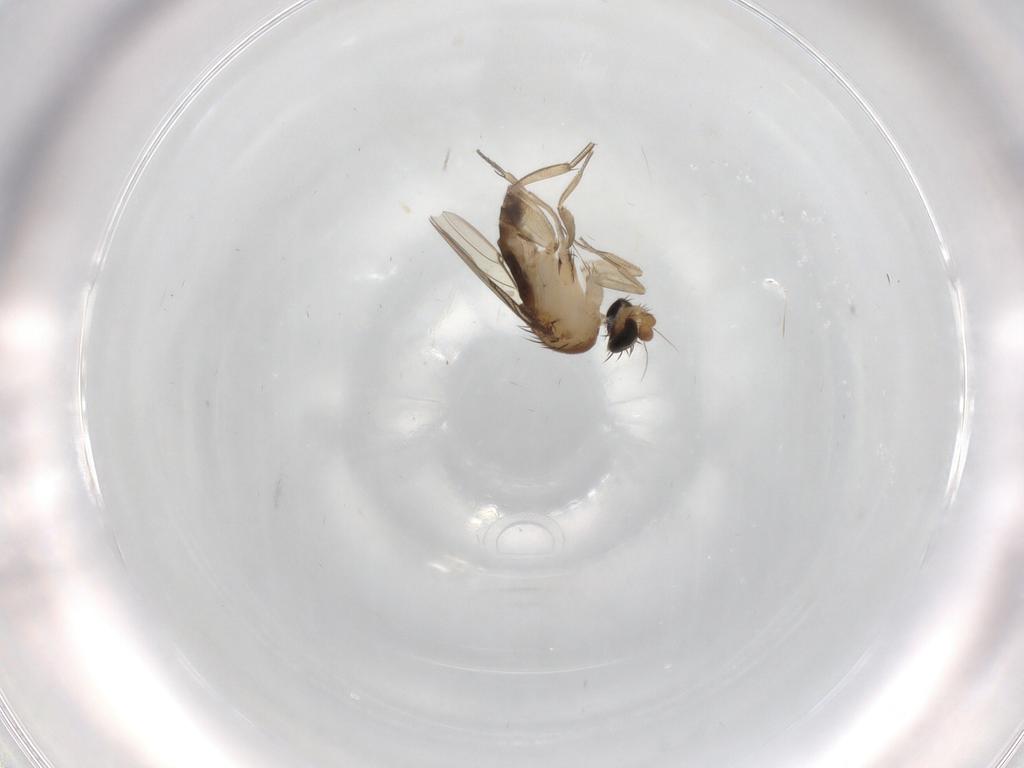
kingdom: Animalia
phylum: Arthropoda
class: Insecta
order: Diptera
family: Phoridae
